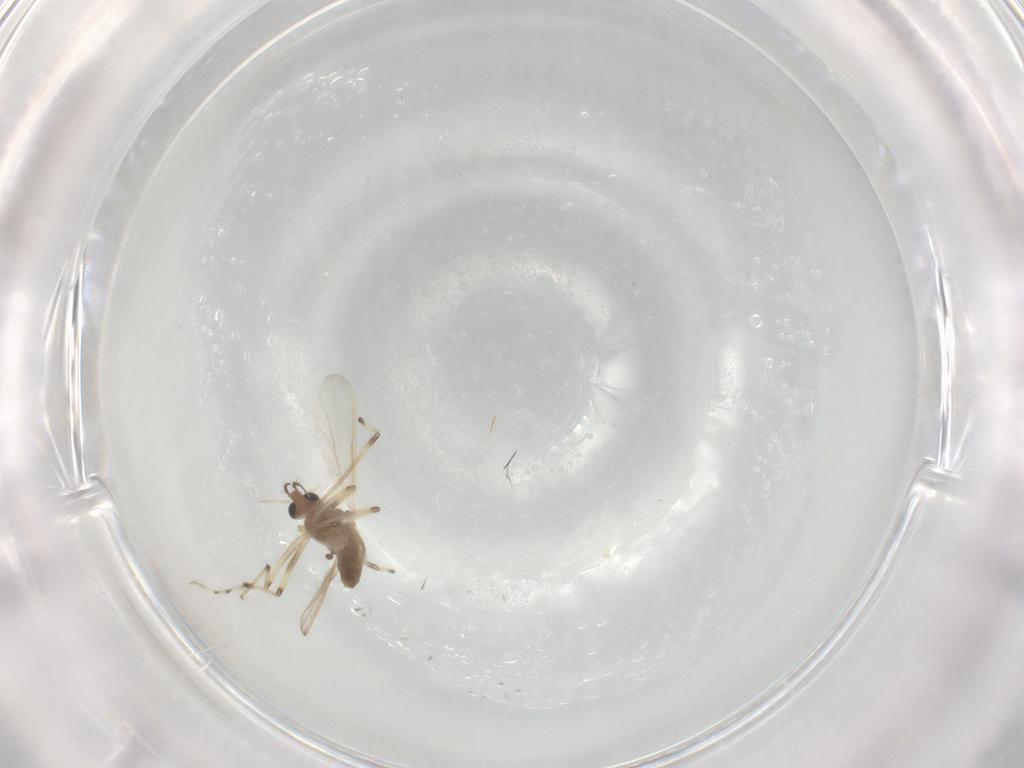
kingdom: Animalia
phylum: Arthropoda
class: Insecta
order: Diptera
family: Chironomidae
